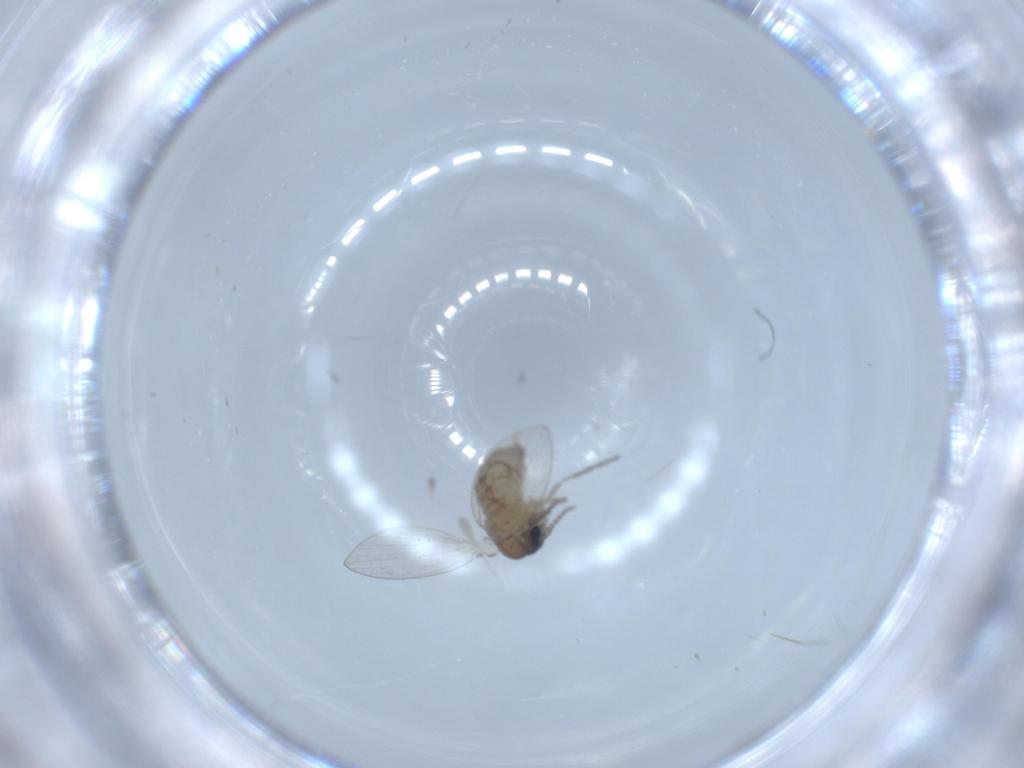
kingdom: Animalia
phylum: Arthropoda
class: Insecta
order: Diptera
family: Psychodidae
